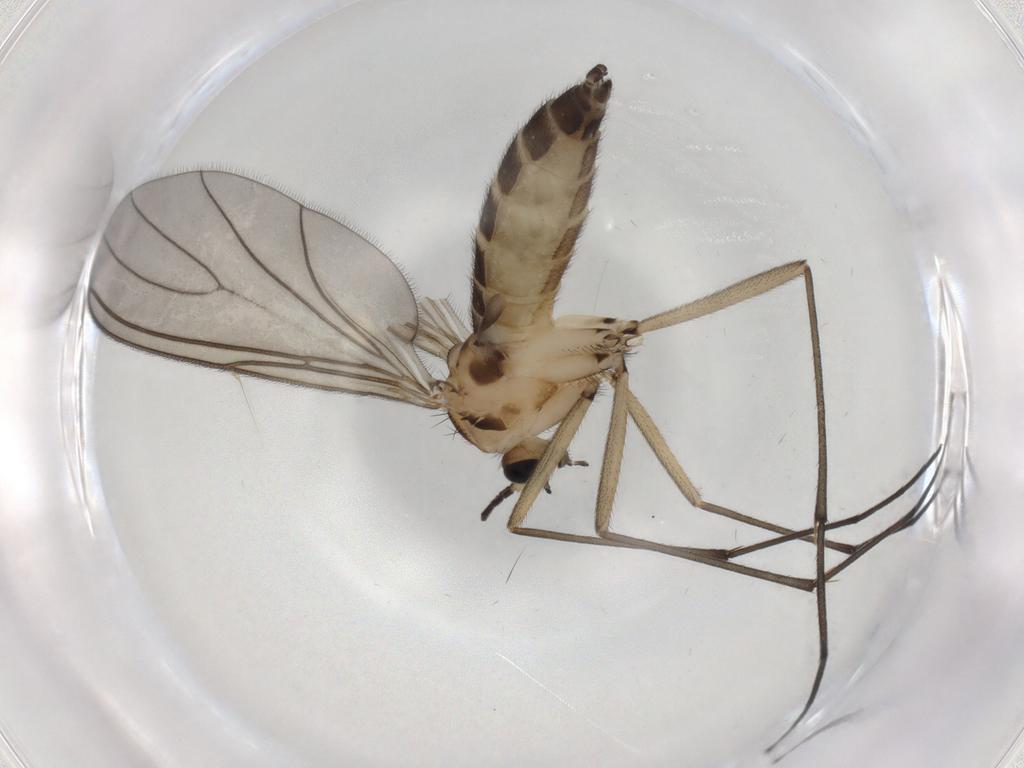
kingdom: Animalia
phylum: Arthropoda
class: Insecta
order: Diptera
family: Sciaridae
